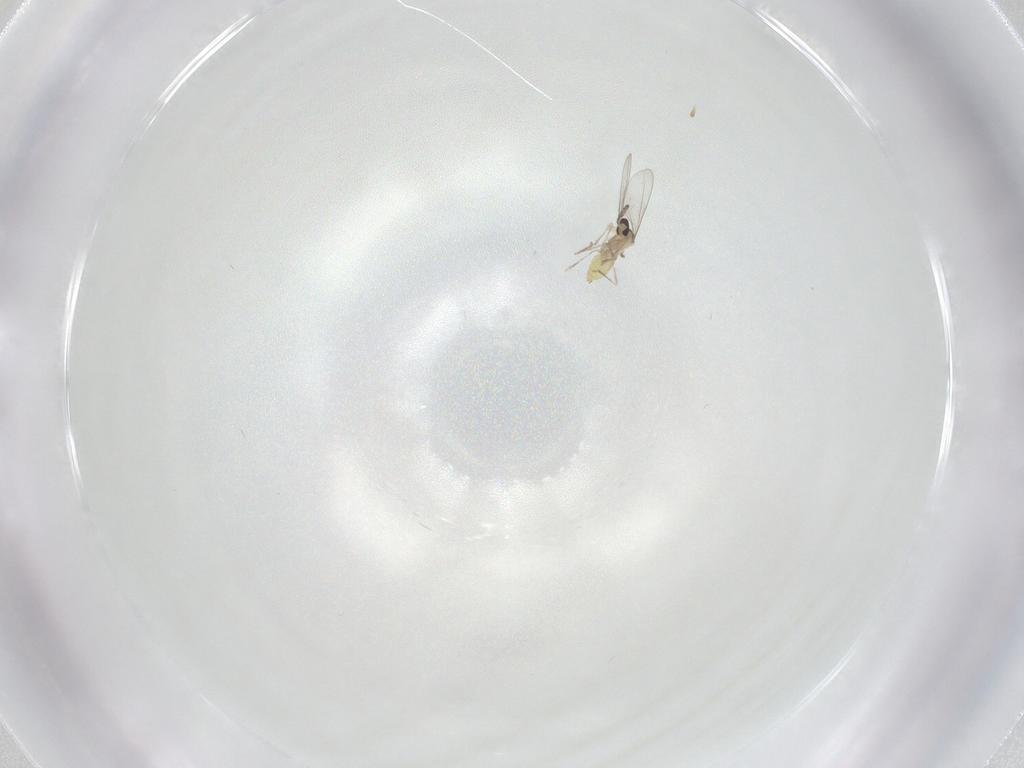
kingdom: Animalia
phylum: Arthropoda
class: Insecta
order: Diptera
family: Cecidomyiidae
